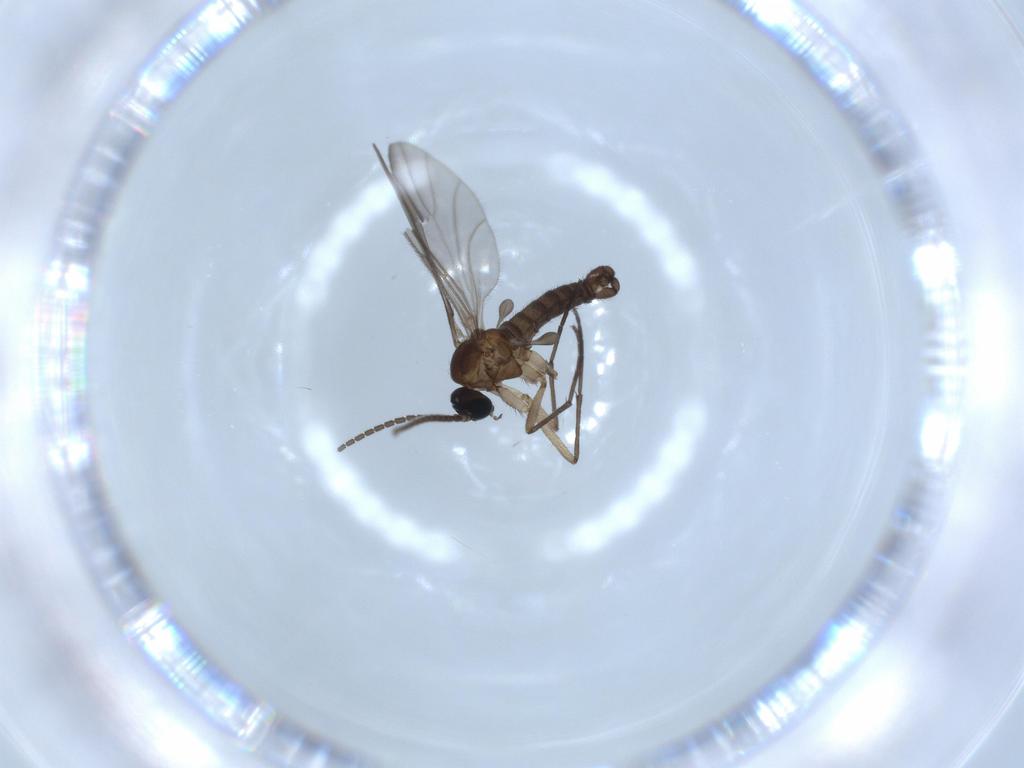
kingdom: Animalia
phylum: Arthropoda
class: Insecta
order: Diptera
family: Sciaridae
